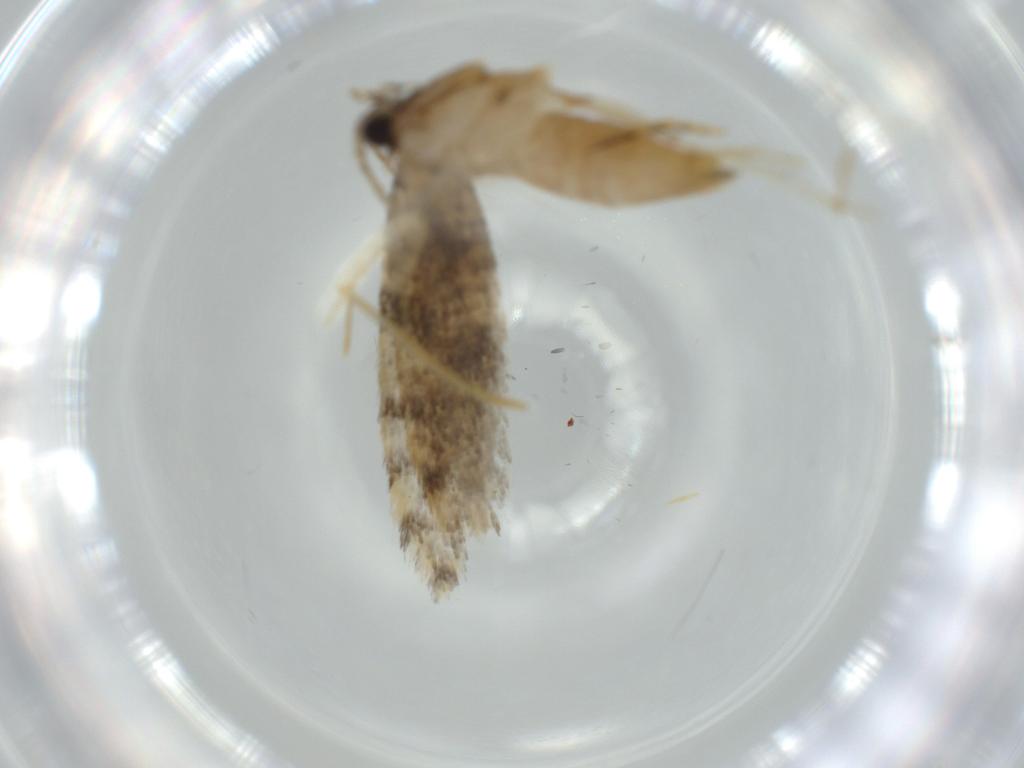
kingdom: Animalia
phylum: Arthropoda
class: Insecta
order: Lepidoptera
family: Tineidae
